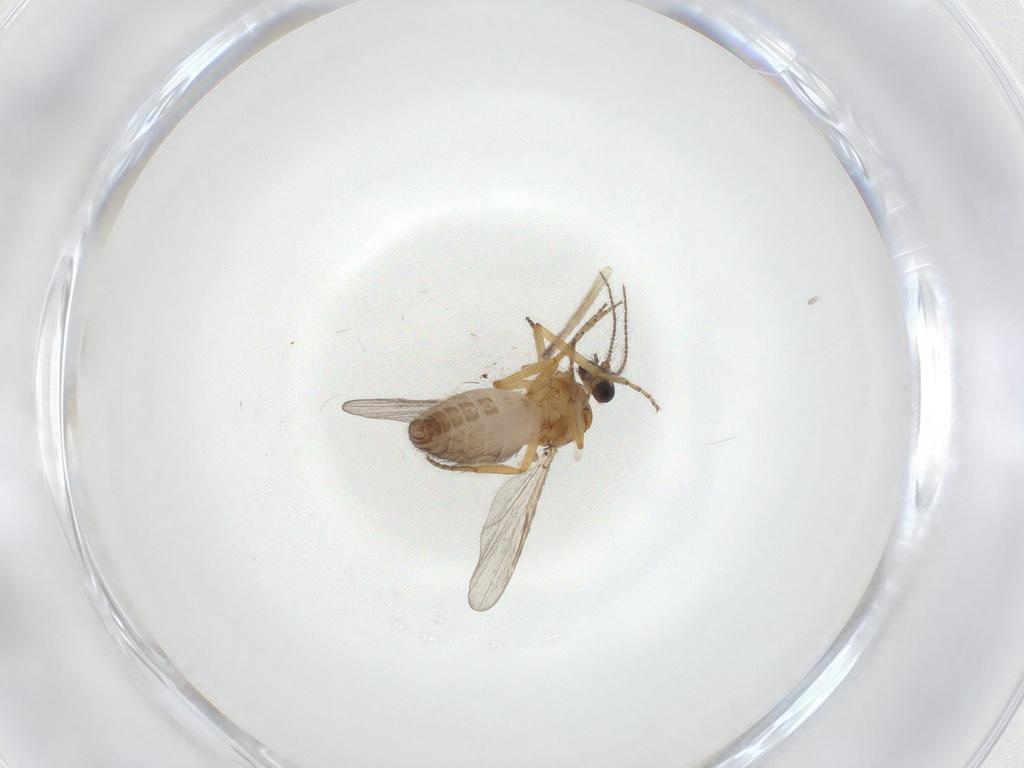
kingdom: Animalia
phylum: Arthropoda
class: Insecta
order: Diptera
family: Ceratopogonidae
